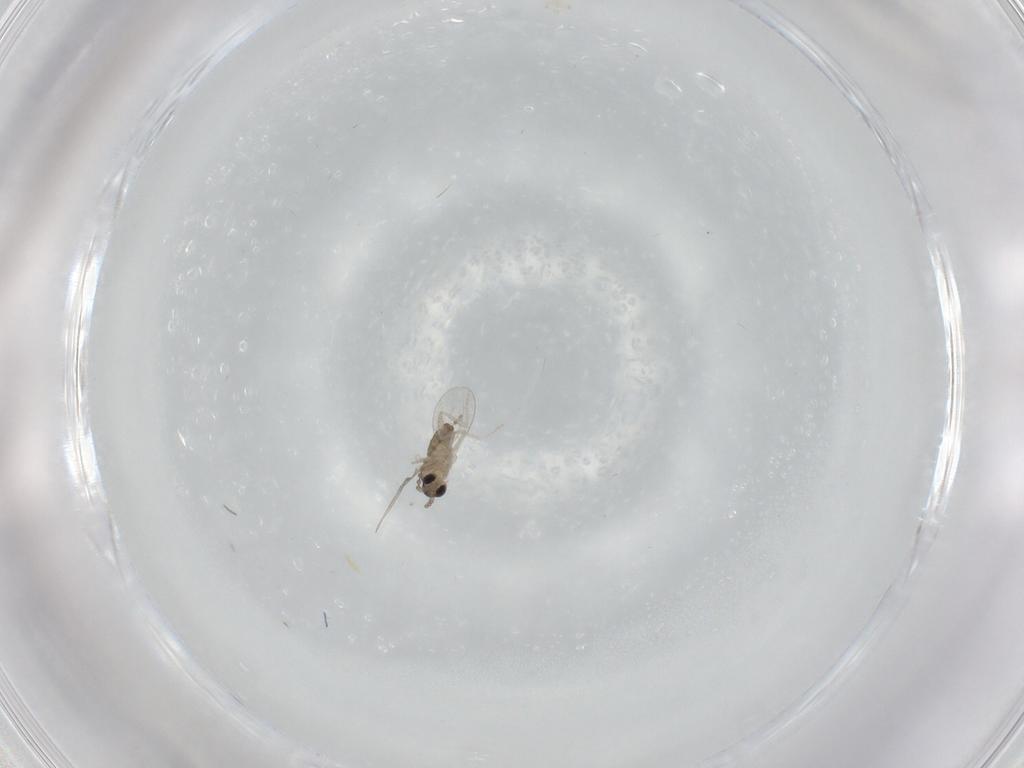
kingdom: Animalia
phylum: Arthropoda
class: Insecta
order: Diptera
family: Cecidomyiidae
